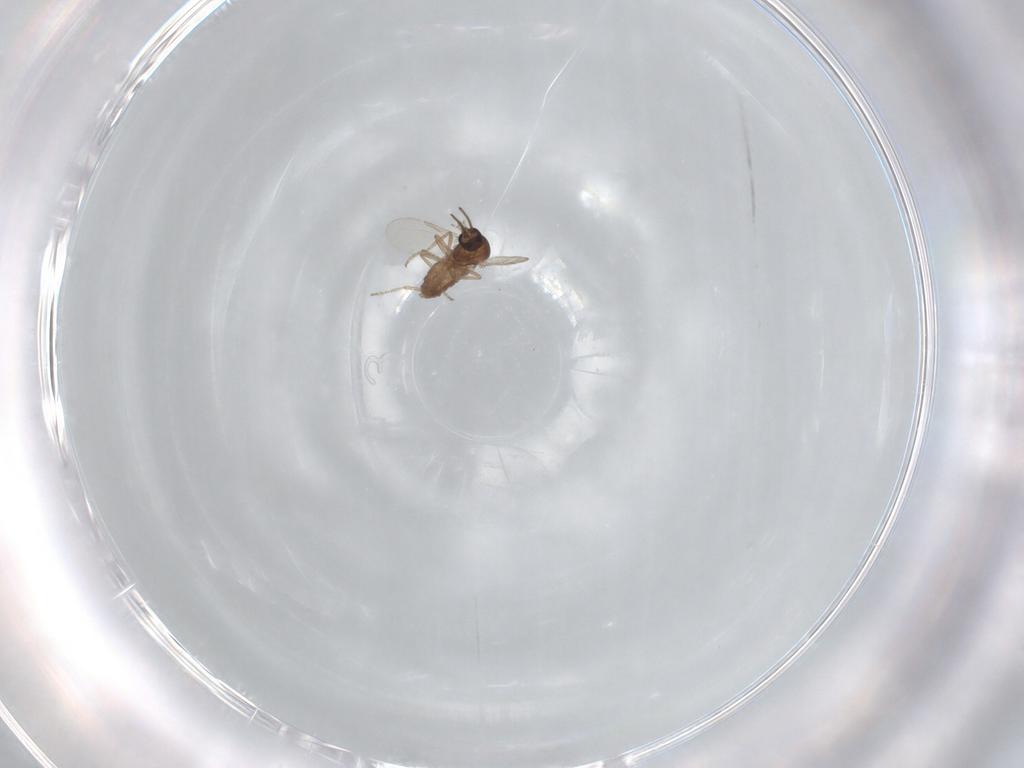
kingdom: Animalia
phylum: Arthropoda
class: Insecta
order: Diptera
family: Ceratopogonidae
